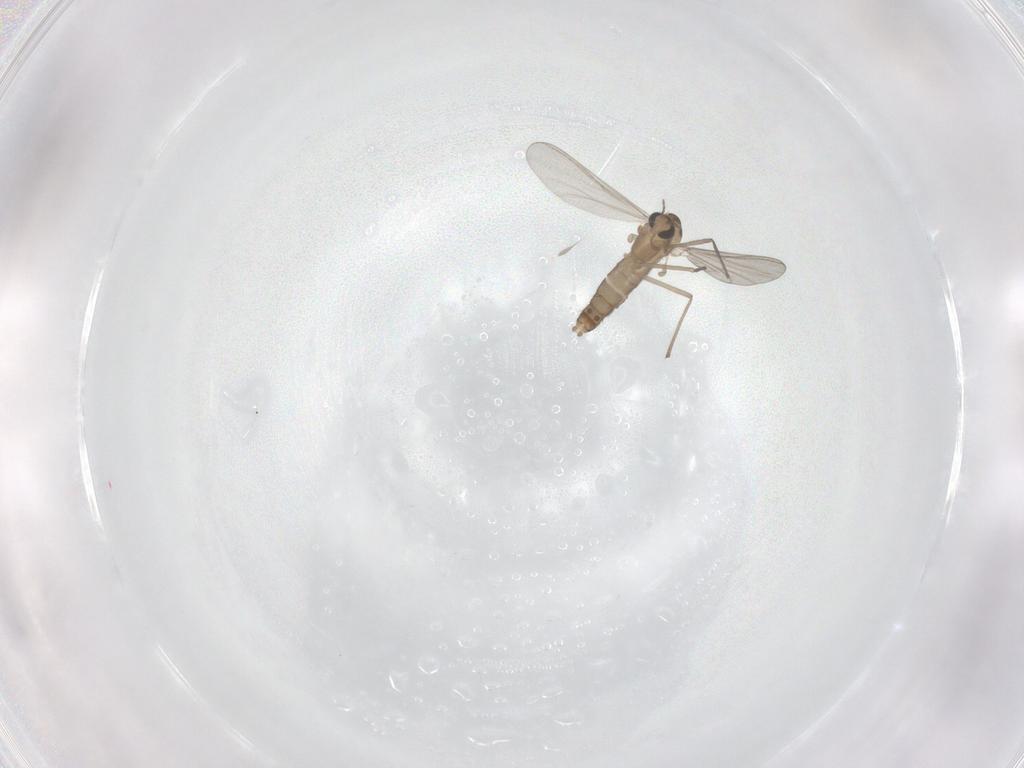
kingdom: Animalia
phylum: Arthropoda
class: Insecta
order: Diptera
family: Chironomidae
